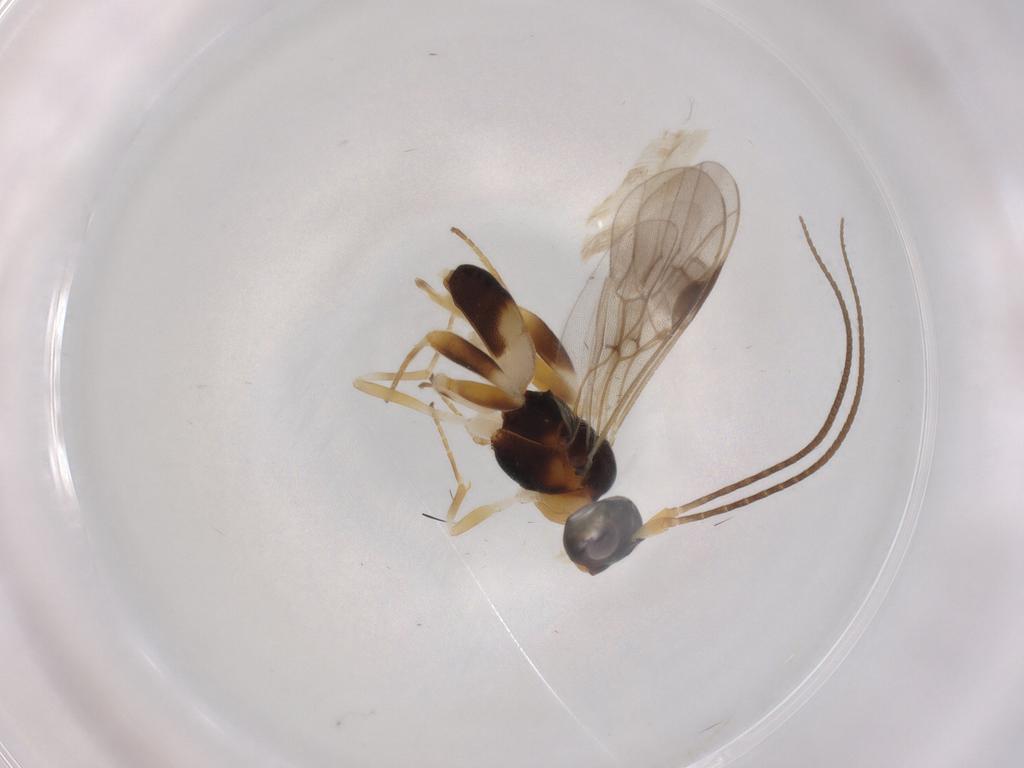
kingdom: Animalia
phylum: Arthropoda
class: Insecta
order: Hymenoptera
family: Braconidae
